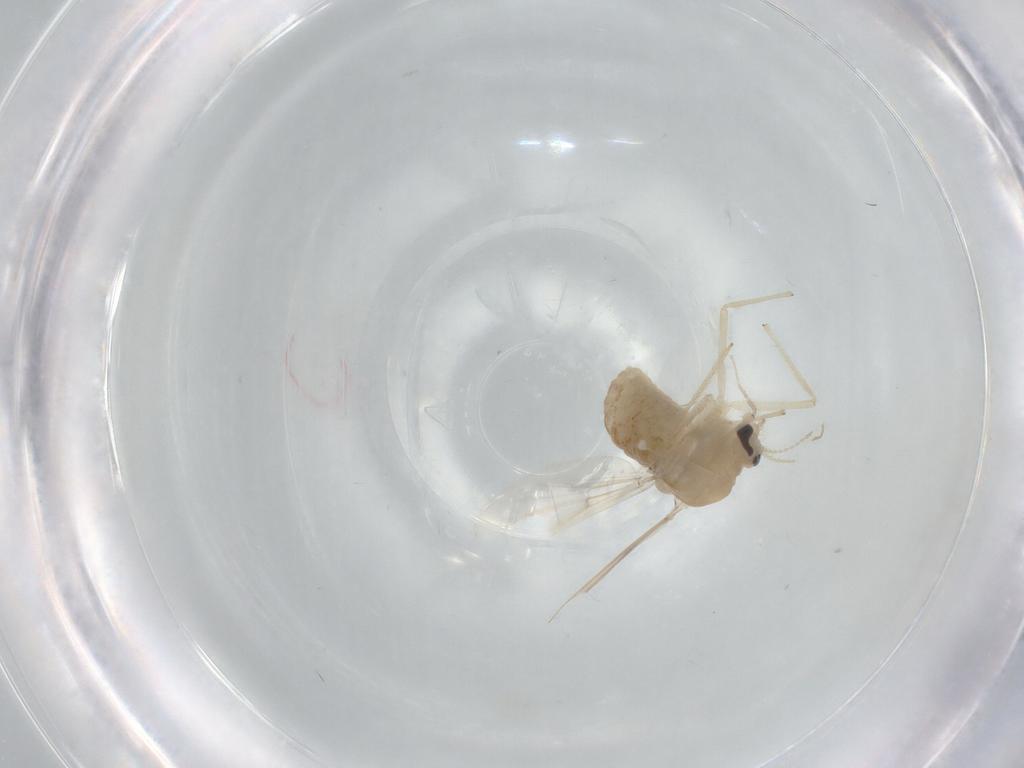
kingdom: Animalia
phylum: Arthropoda
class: Insecta
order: Diptera
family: Chironomidae
